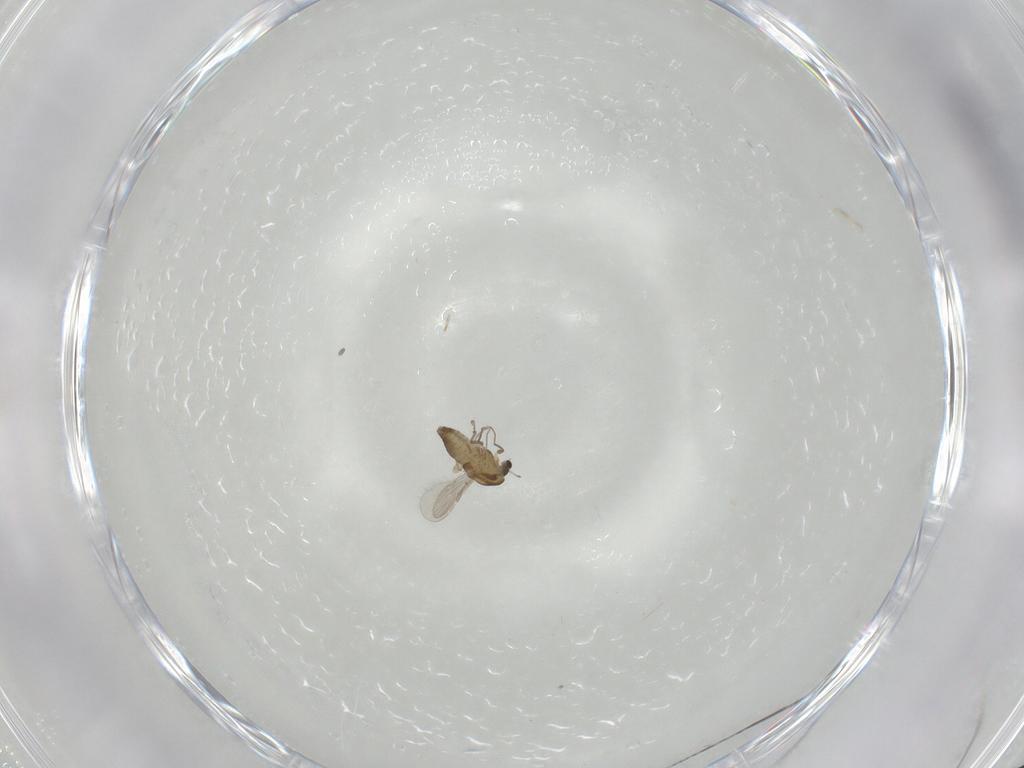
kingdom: Animalia
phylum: Arthropoda
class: Insecta
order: Diptera
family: Chironomidae
